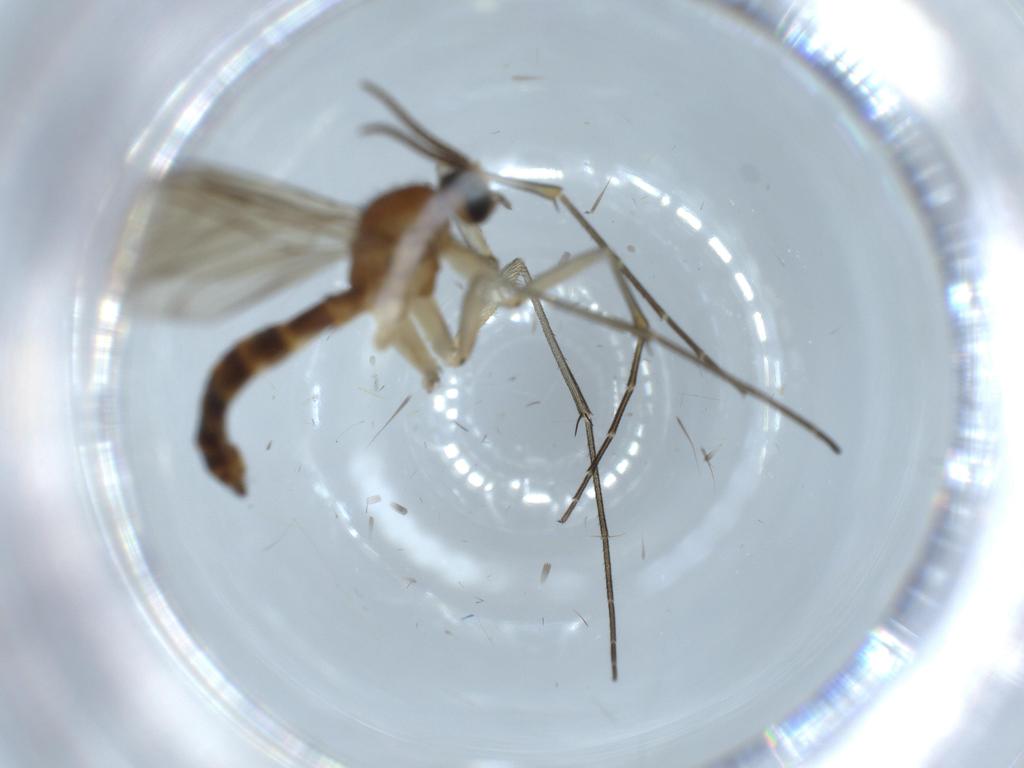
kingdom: Animalia
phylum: Arthropoda
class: Insecta
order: Diptera
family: Keroplatidae
